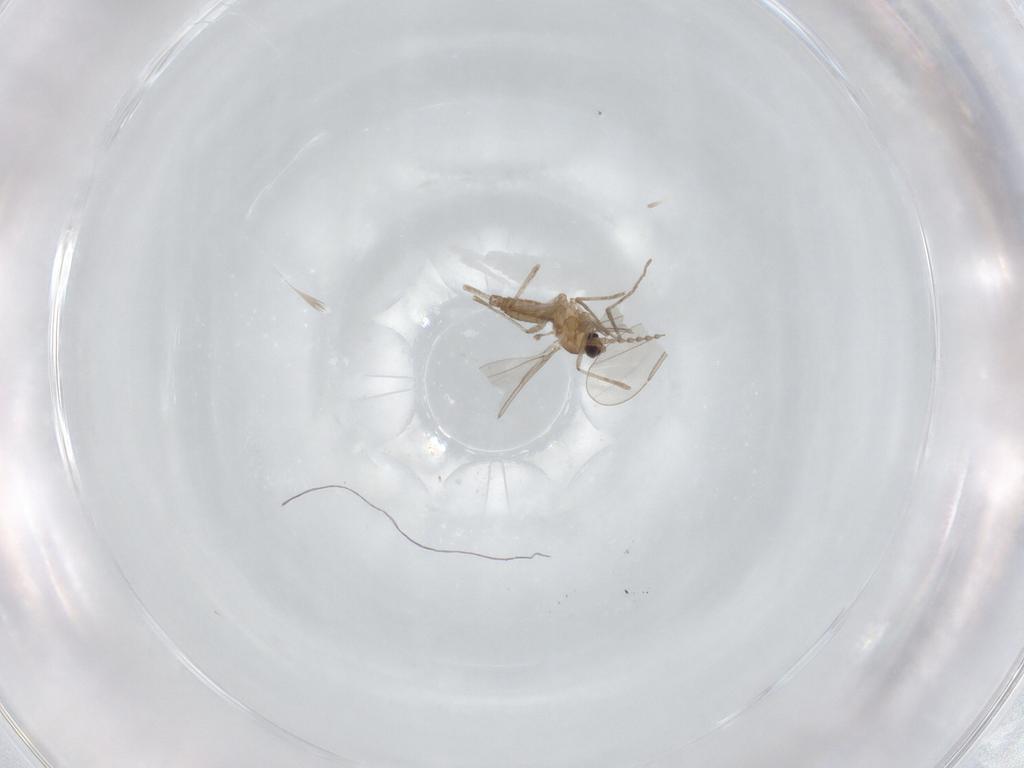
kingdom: Animalia
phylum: Arthropoda
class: Insecta
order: Diptera
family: Cecidomyiidae
